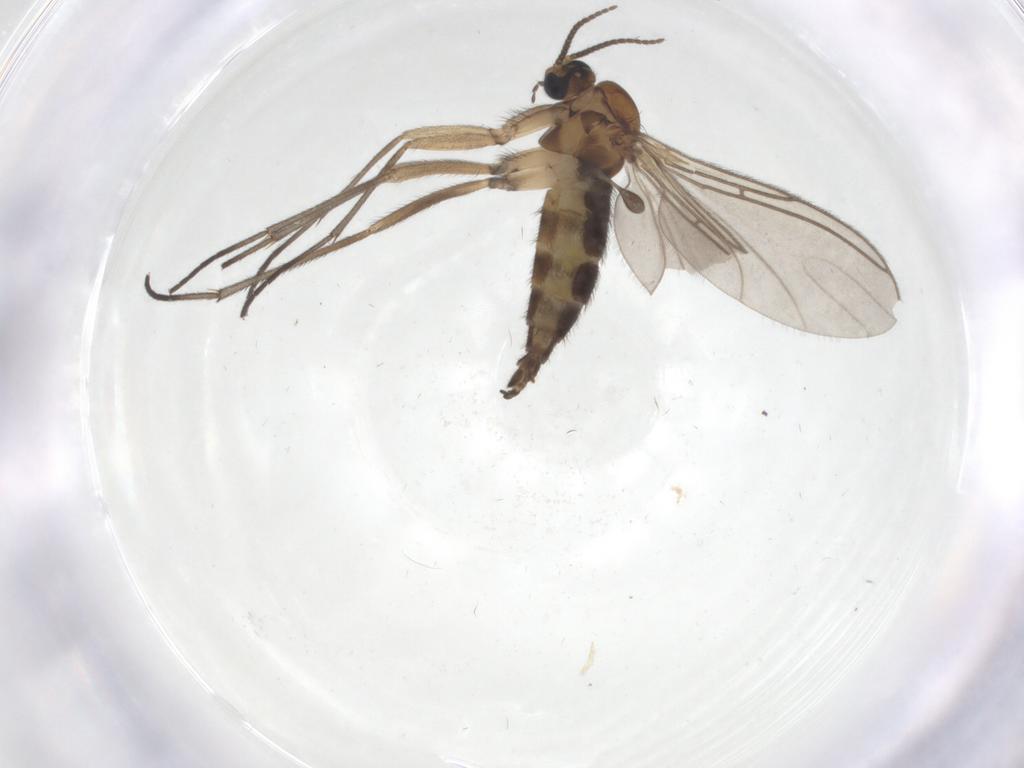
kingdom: Animalia
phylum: Arthropoda
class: Insecta
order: Diptera
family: Sciaridae
